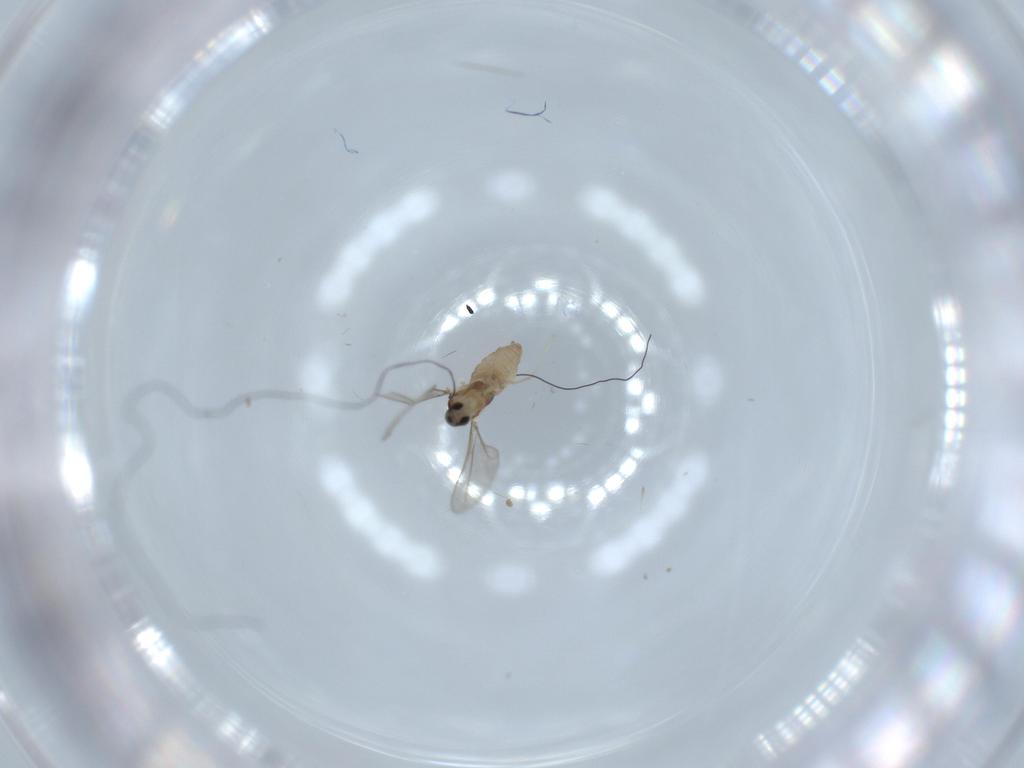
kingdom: Animalia
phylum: Arthropoda
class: Insecta
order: Diptera
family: Cecidomyiidae
